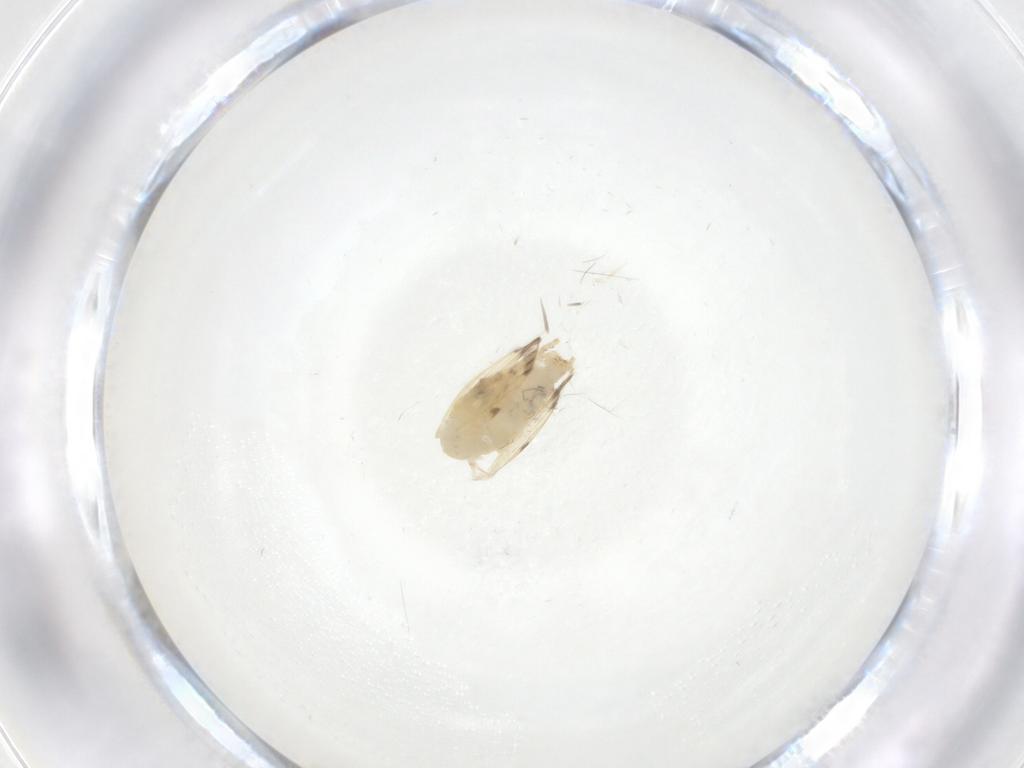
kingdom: Animalia
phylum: Arthropoda
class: Insecta
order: Diptera
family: Psychodidae
